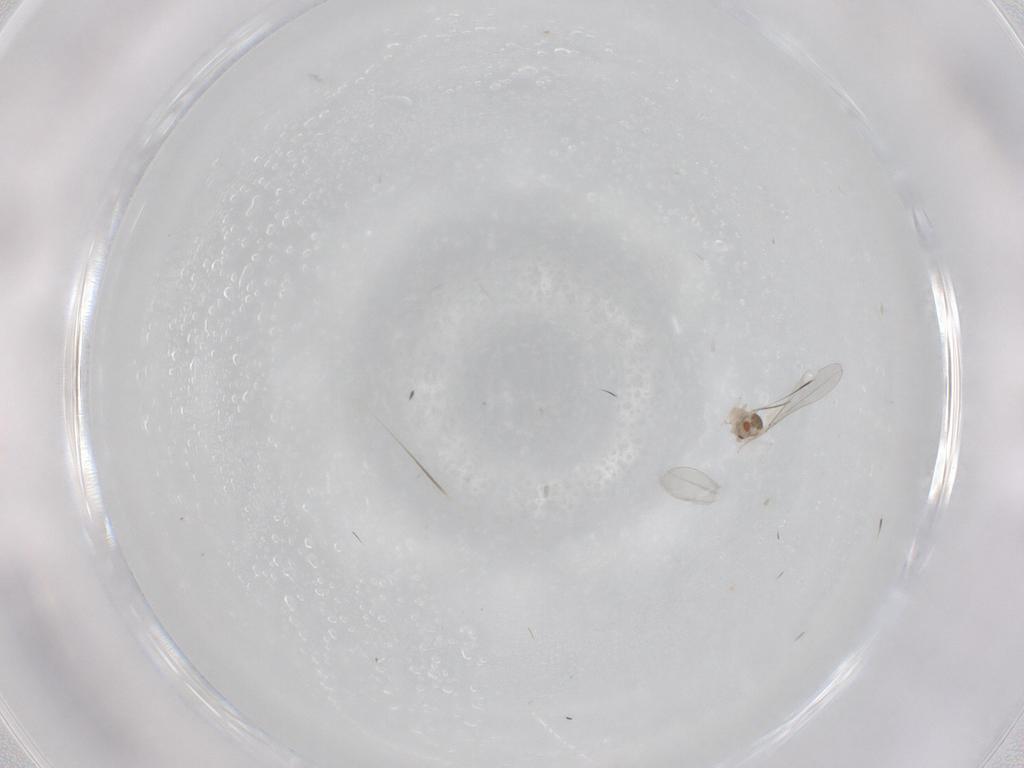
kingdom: Animalia
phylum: Arthropoda
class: Insecta
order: Diptera
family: Cecidomyiidae
